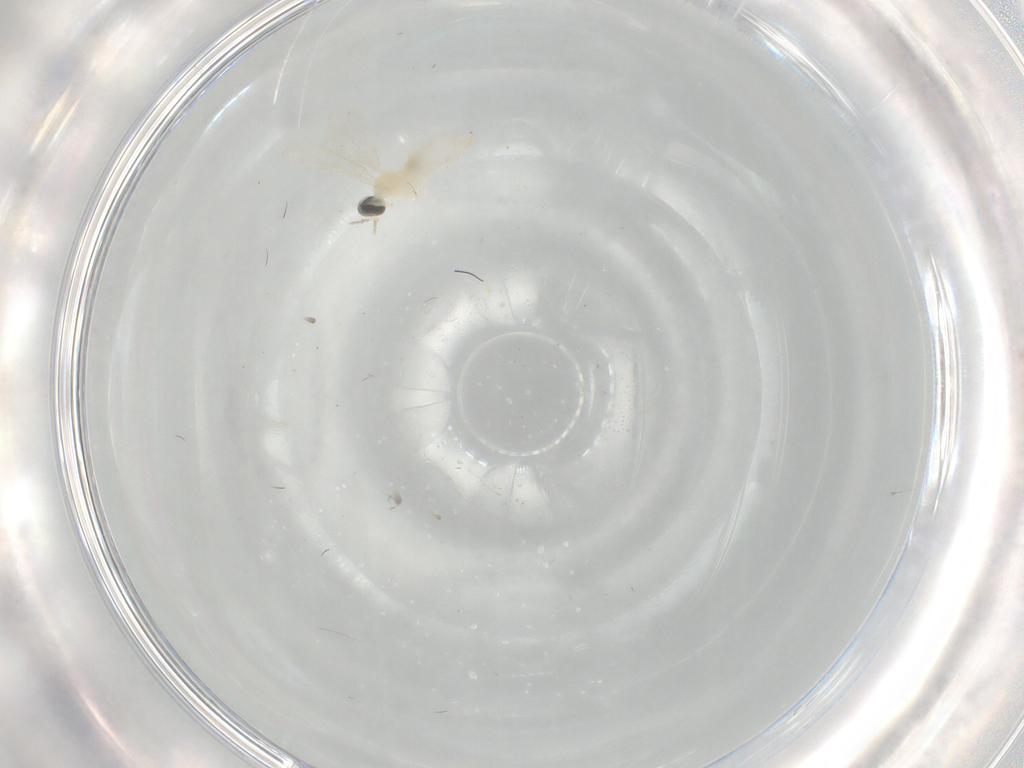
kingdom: Animalia
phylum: Arthropoda
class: Insecta
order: Diptera
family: Cecidomyiidae
